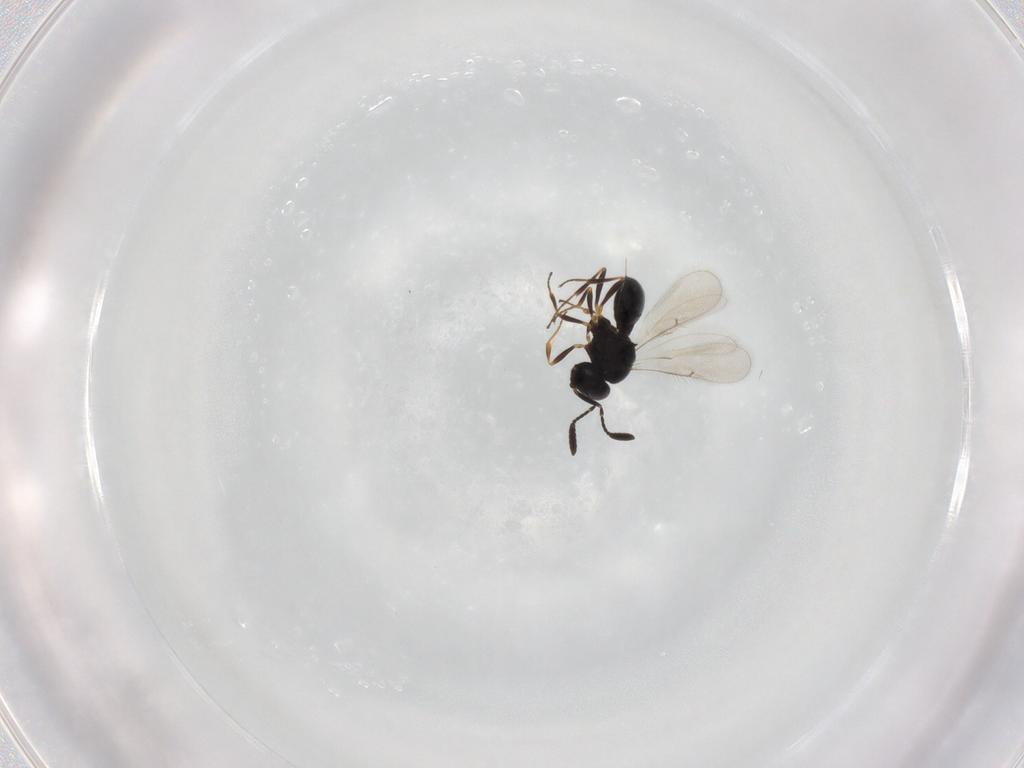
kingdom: Animalia
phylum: Arthropoda
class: Insecta
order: Hymenoptera
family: Scelionidae
